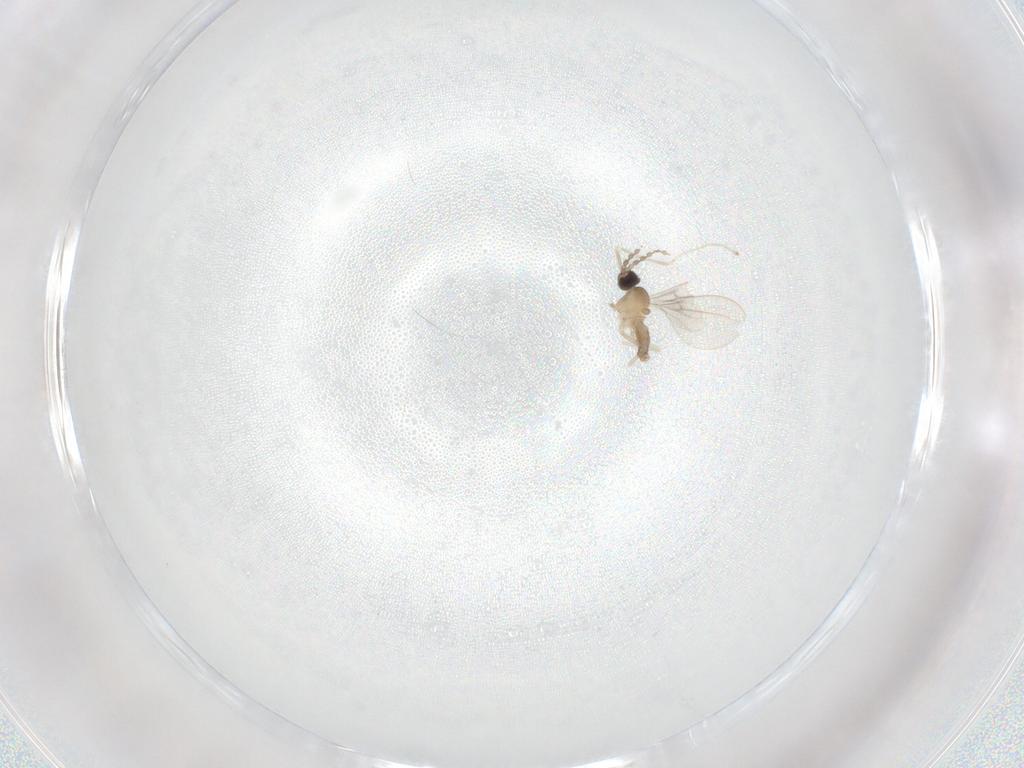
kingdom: Animalia
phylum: Arthropoda
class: Insecta
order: Diptera
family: Cecidomyiidae
